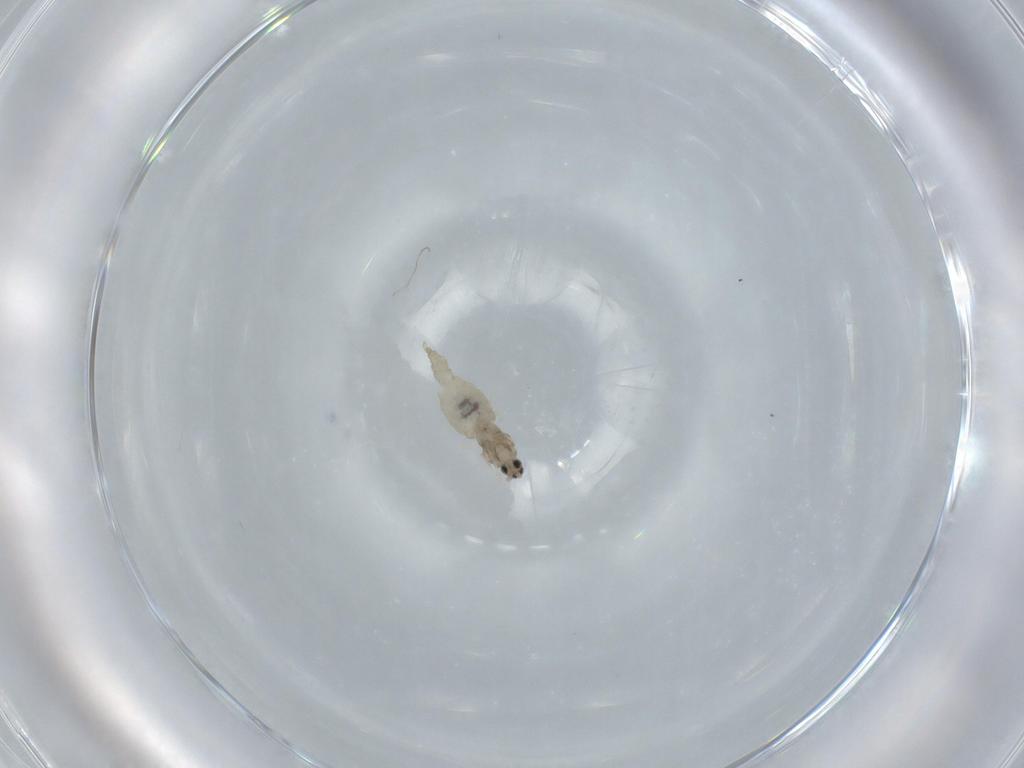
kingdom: Animalia
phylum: Arthropoda
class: Insecta
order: Diptera
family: Cecidomyiidae
